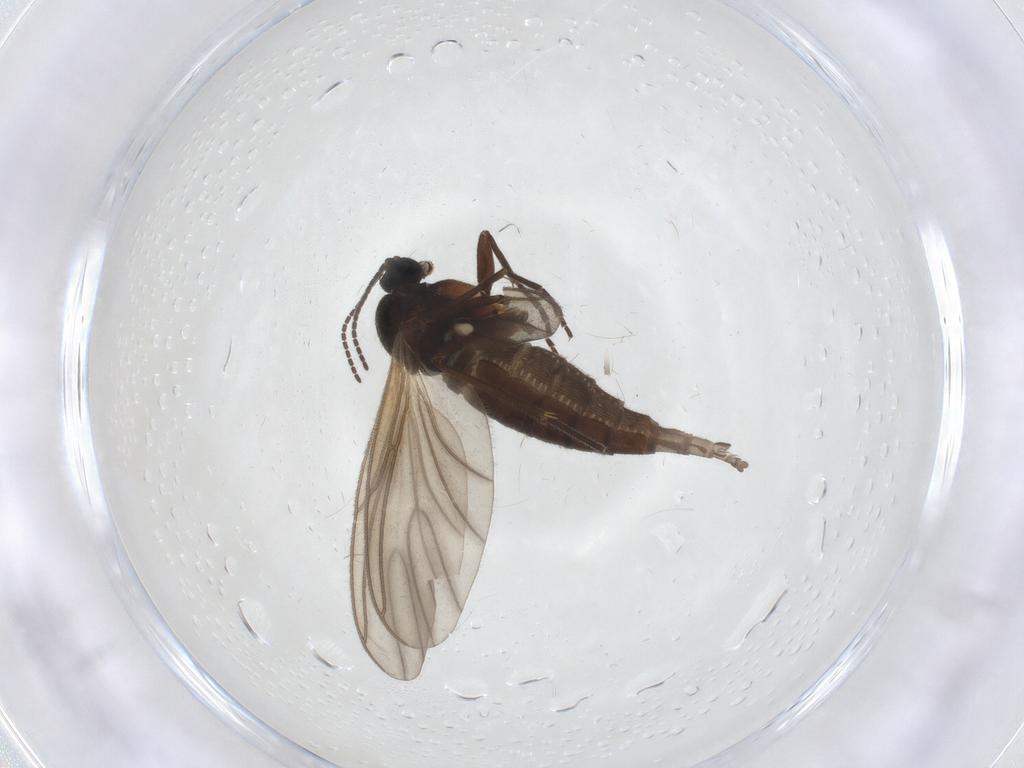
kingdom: Animalia
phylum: Arthropoda
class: Insecta
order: Diptera
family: Sciaridae
